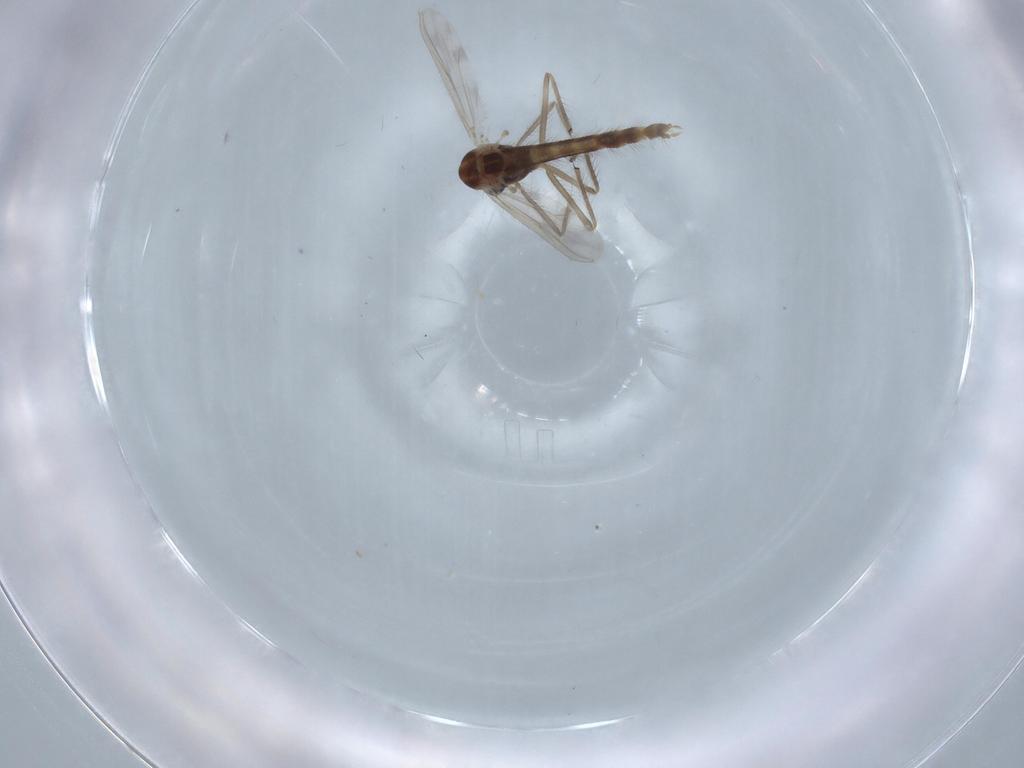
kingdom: Animalia
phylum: Arthropoda
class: Insecta
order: Diptera
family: Chironomidae
